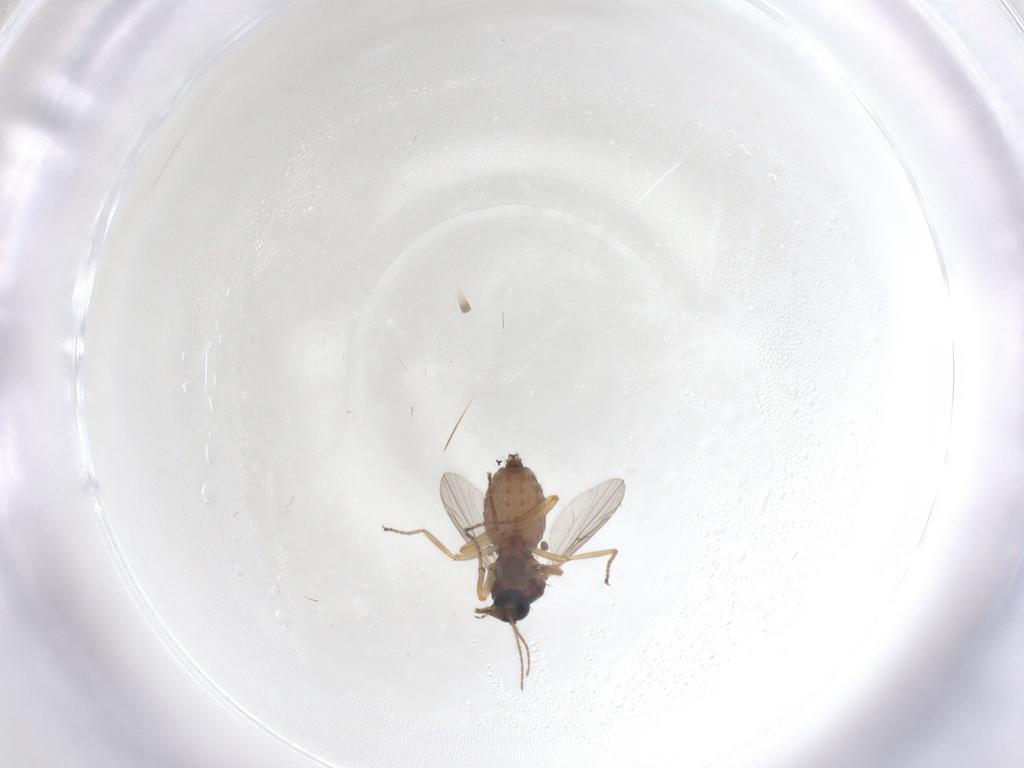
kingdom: Animalia
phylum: Arthropoda
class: Insecta
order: Diptera
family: Ceratopogonidae
